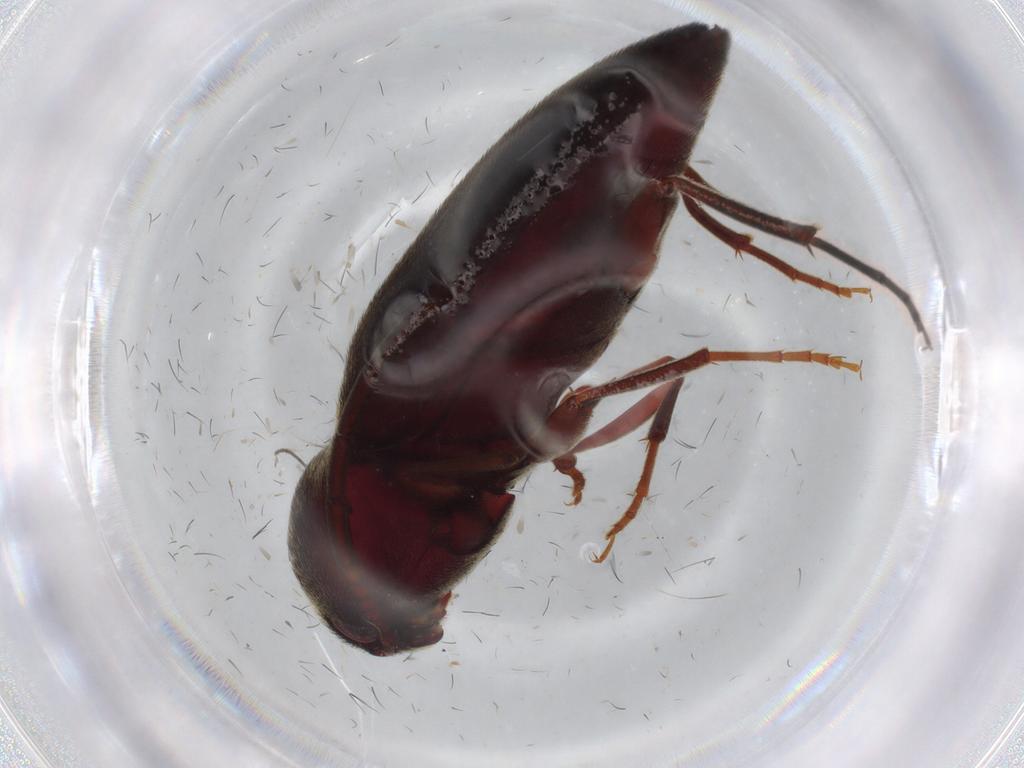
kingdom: Animalia
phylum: Arthropoda
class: Insecta
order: Coleoptera
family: Eucnemidae
